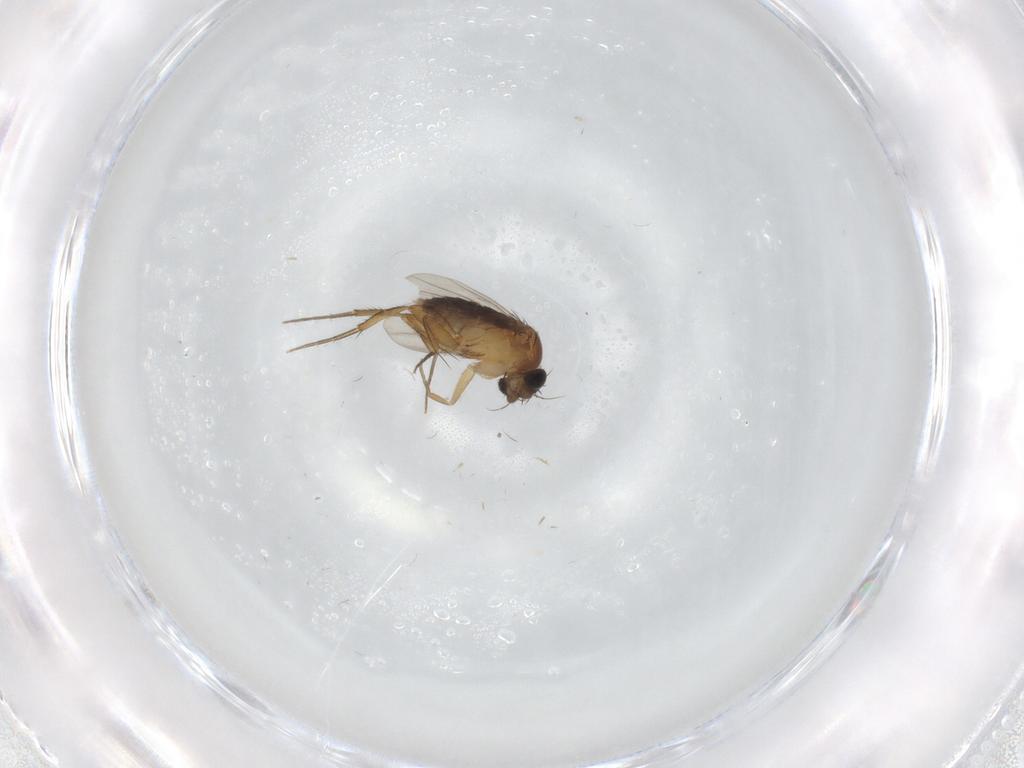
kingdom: Animalia
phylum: Arthropoda
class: Insecta
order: Diptera
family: Phoridae
